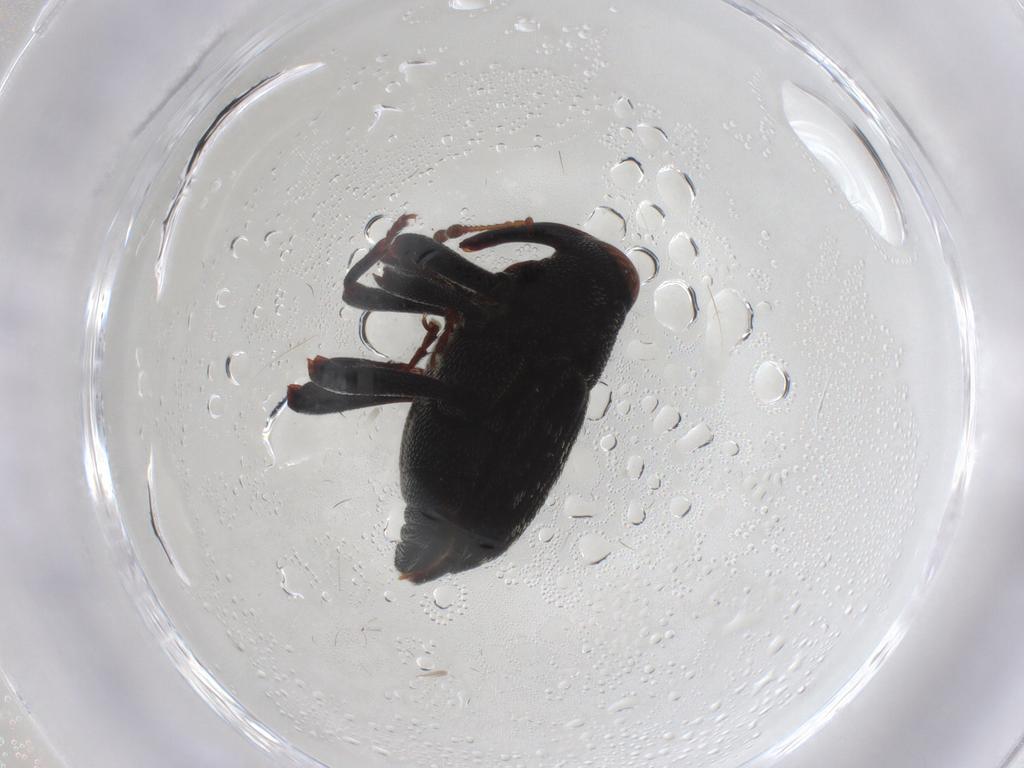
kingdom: Animalia
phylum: Arthropoda
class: Insecta
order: Coleoptera
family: Curculionidae
